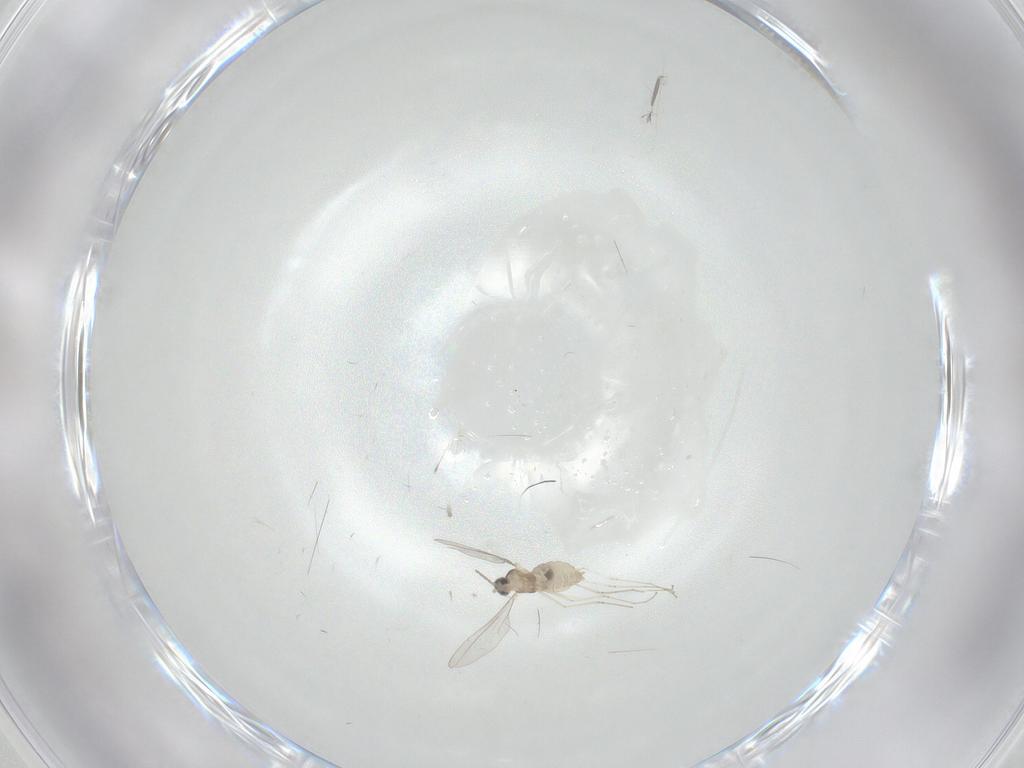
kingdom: Animalia
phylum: Arthropoda
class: Insecta
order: Diptera
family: Cecidomyiidae
